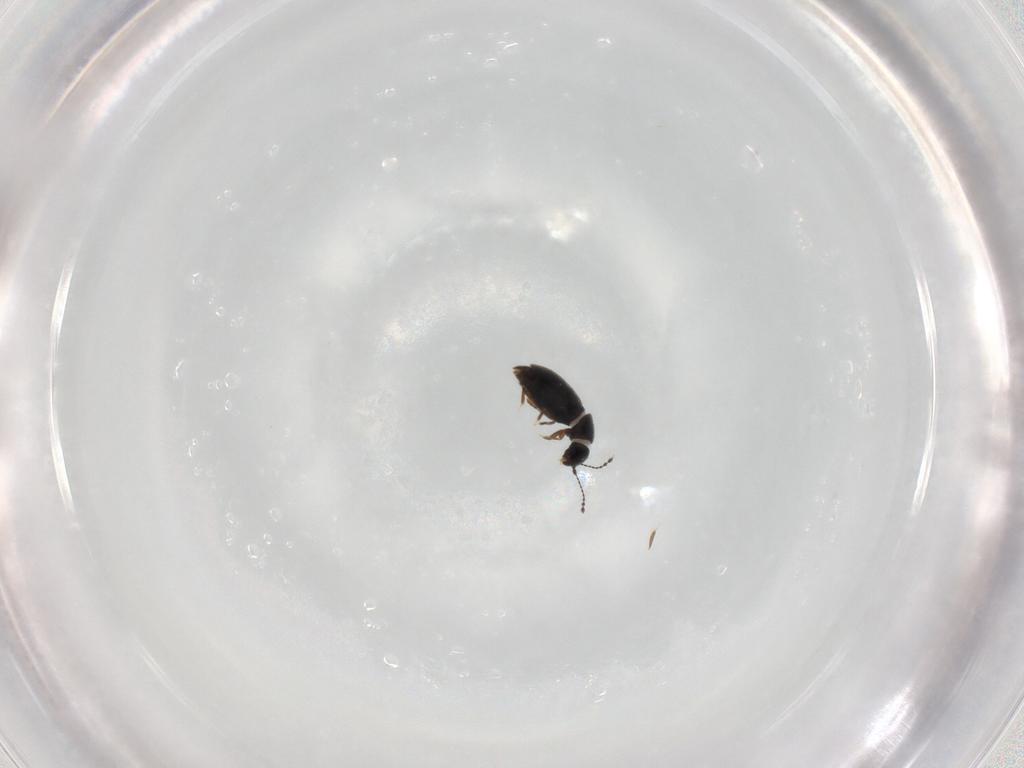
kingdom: Animalia
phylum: Arthropoda
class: Insecta
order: Coleoptera
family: Ptiliidae
